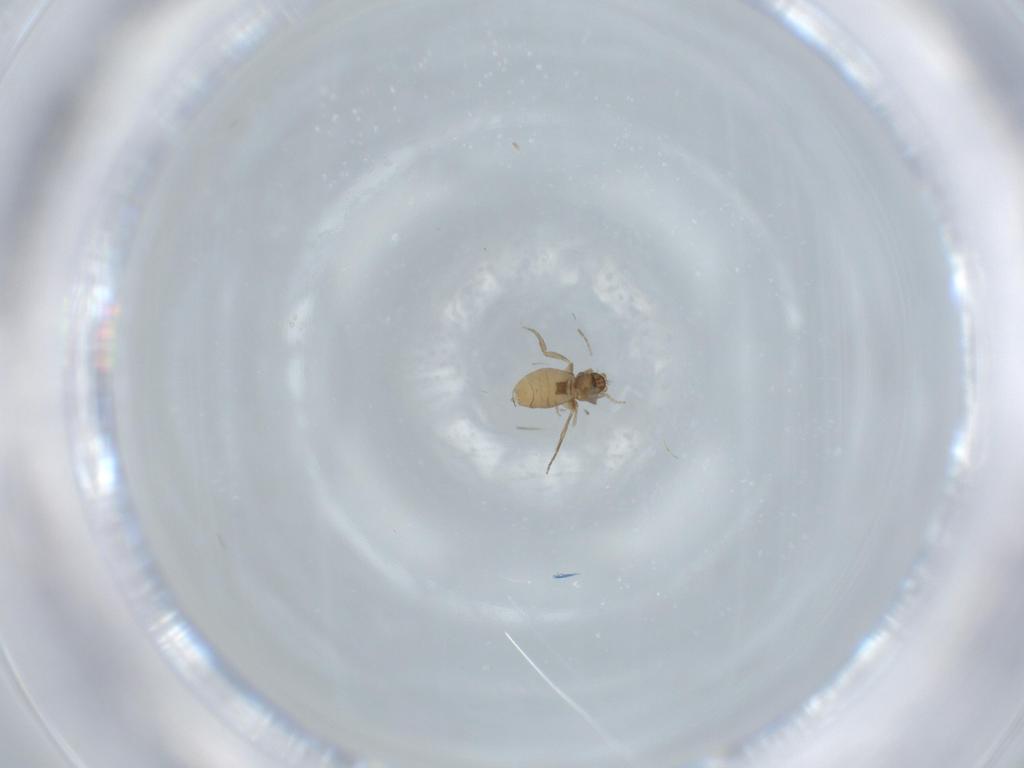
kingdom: Animalia
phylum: Arthropoda
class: Insecta
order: Diptera
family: Phoridae
